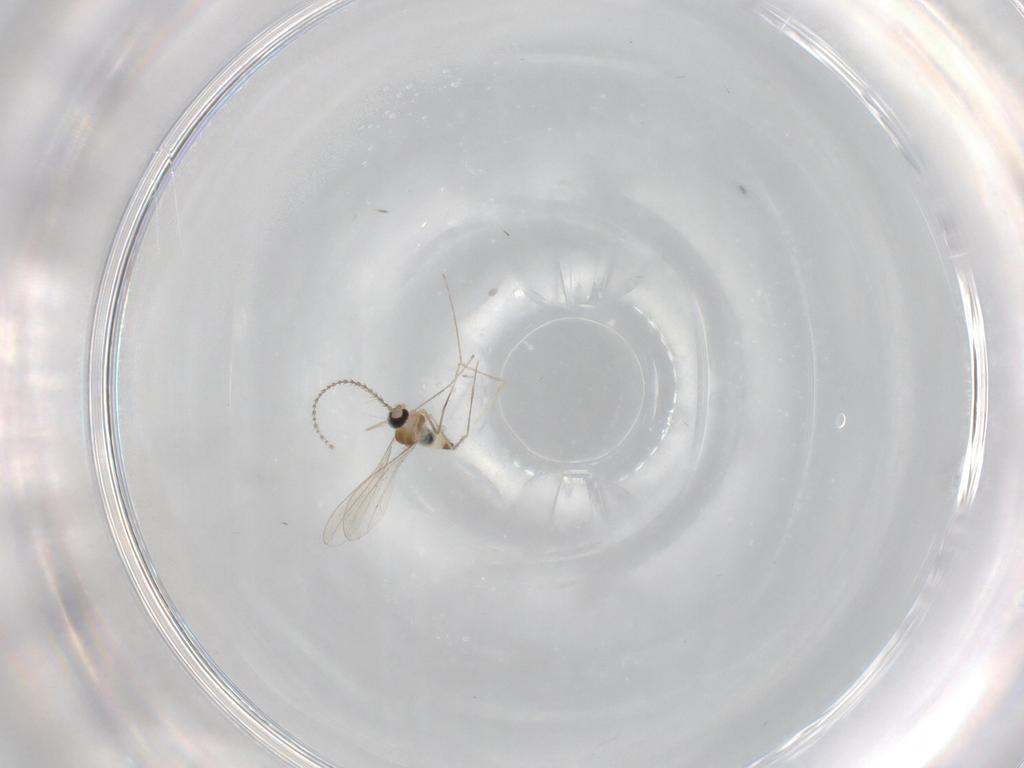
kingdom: Animalia
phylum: Arthropoda
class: Insecta
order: Diptera
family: Cecidomyiidae
